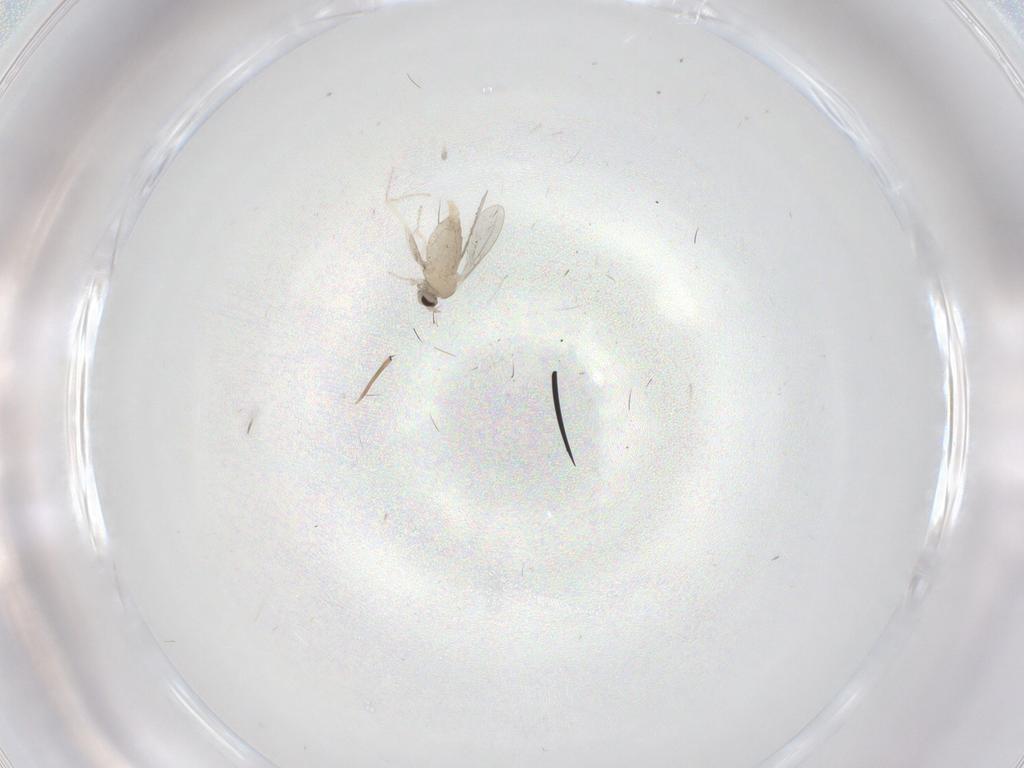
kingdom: Animalia
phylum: Arthropoda
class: Insecta
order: Diptera
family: Cecidomyiidae
